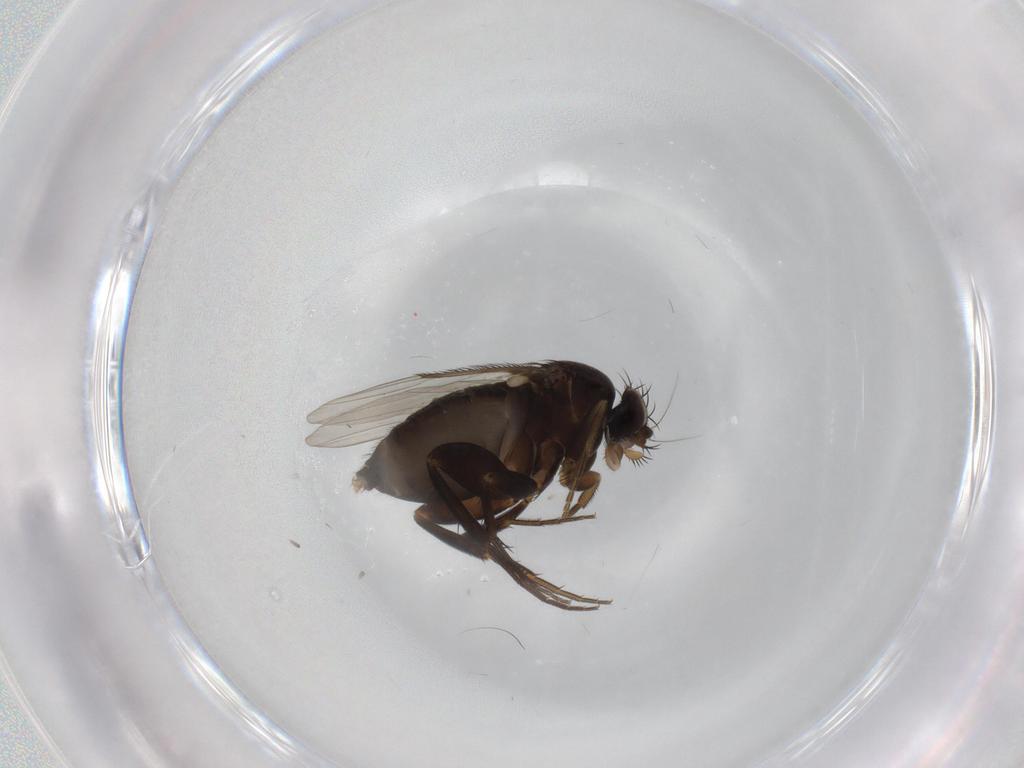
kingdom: Animalia
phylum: Arthropoda
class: Insecta
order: Diptera
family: Phoridae
